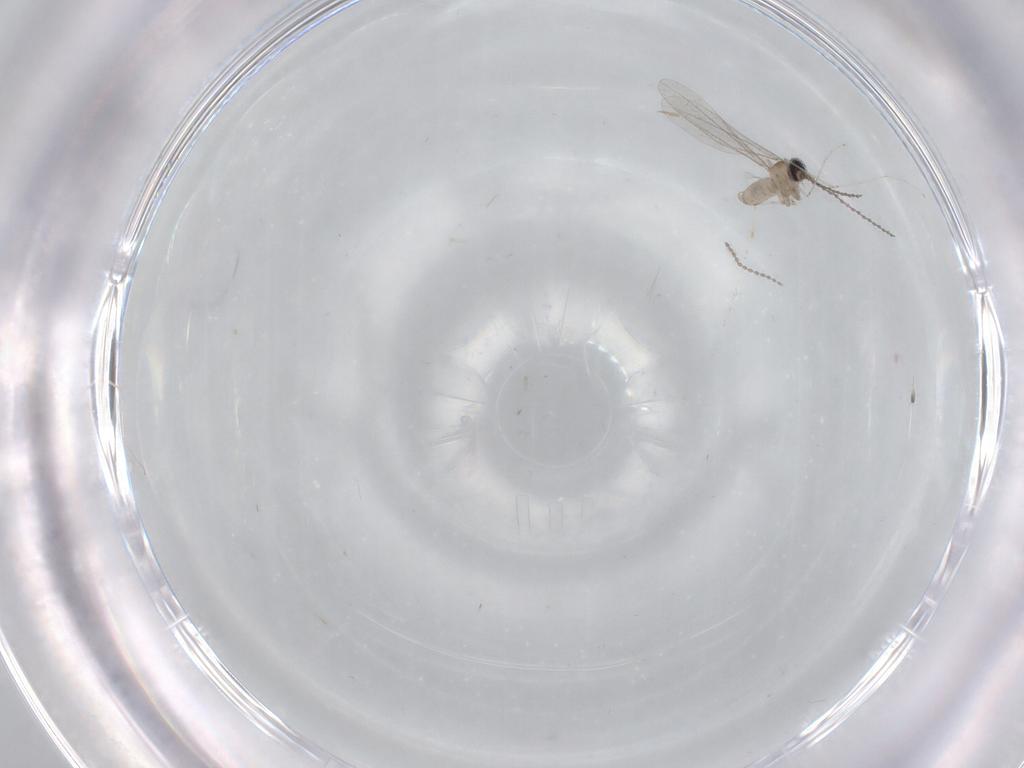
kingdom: Animalia
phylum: Arthropoda
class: Insecta
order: Diptera
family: Cecidomyiidae
